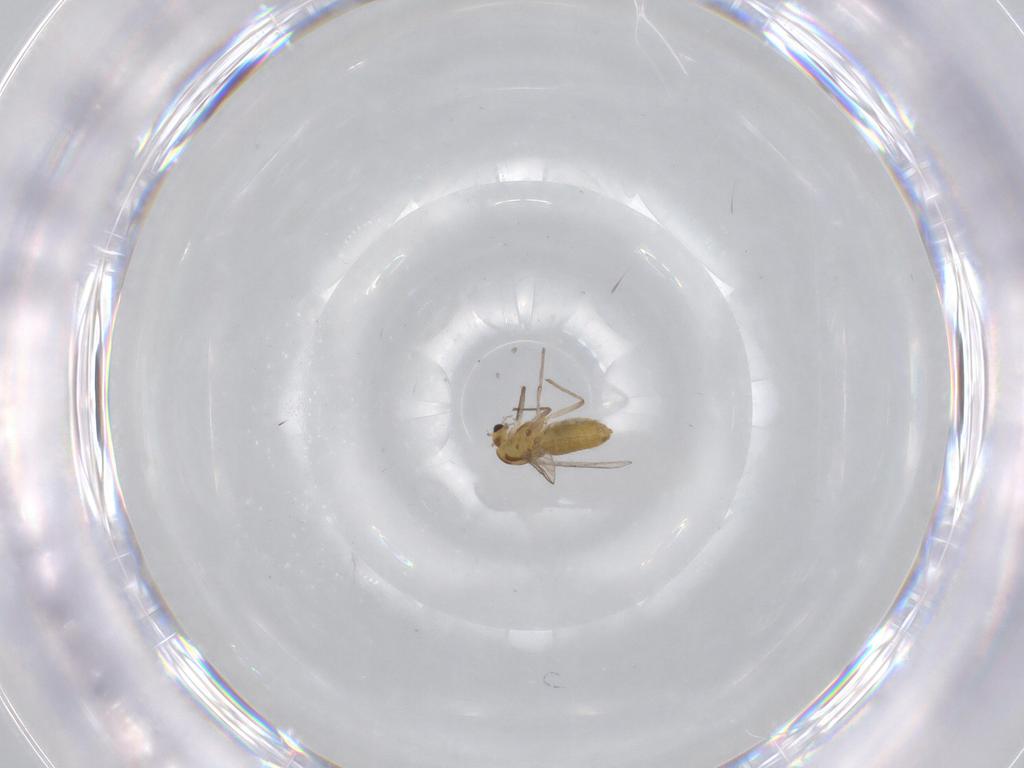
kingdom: Animalia
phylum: Arthropoda
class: Insecta
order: Diptera
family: Chironomidae
